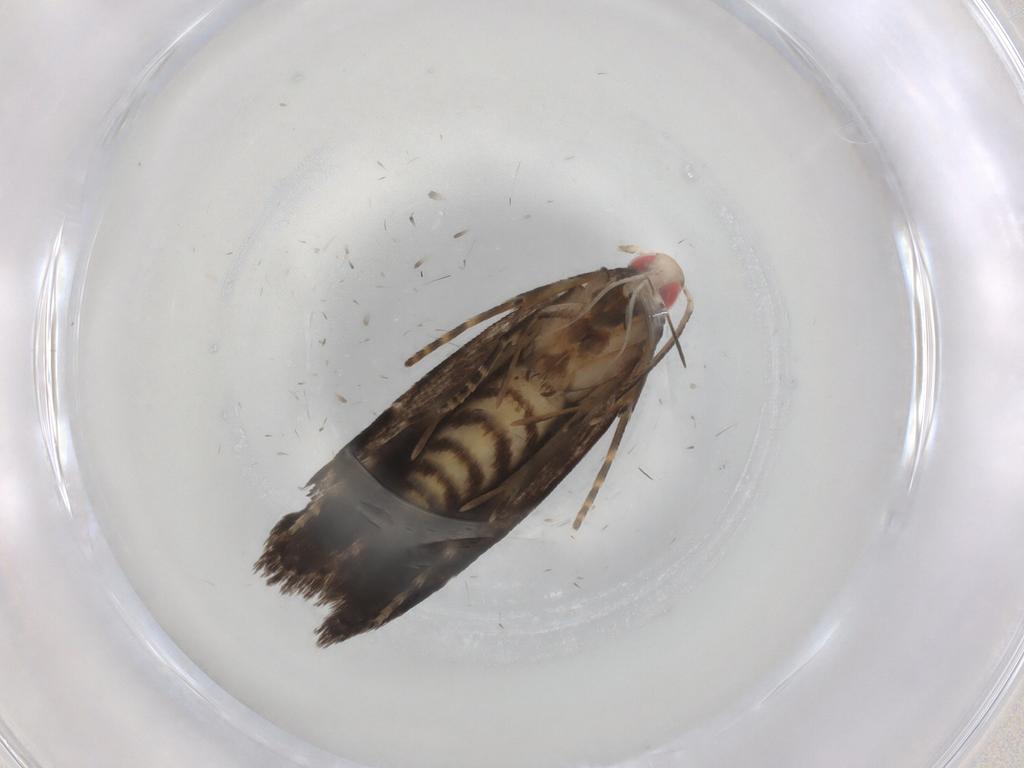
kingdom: Animalia
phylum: Arthropoda
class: Insecta
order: Lepidoptera
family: Gelechiidae
